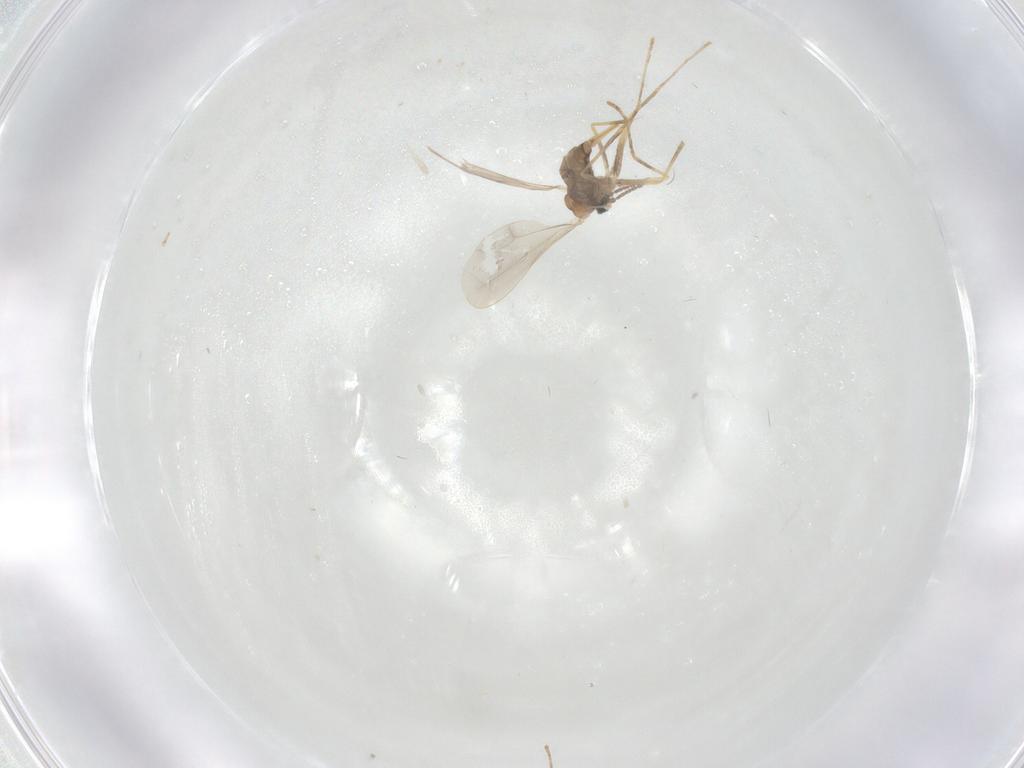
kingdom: Animalia
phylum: Arthropoda
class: Insecta
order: Diptera
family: Cecidomyiidae
